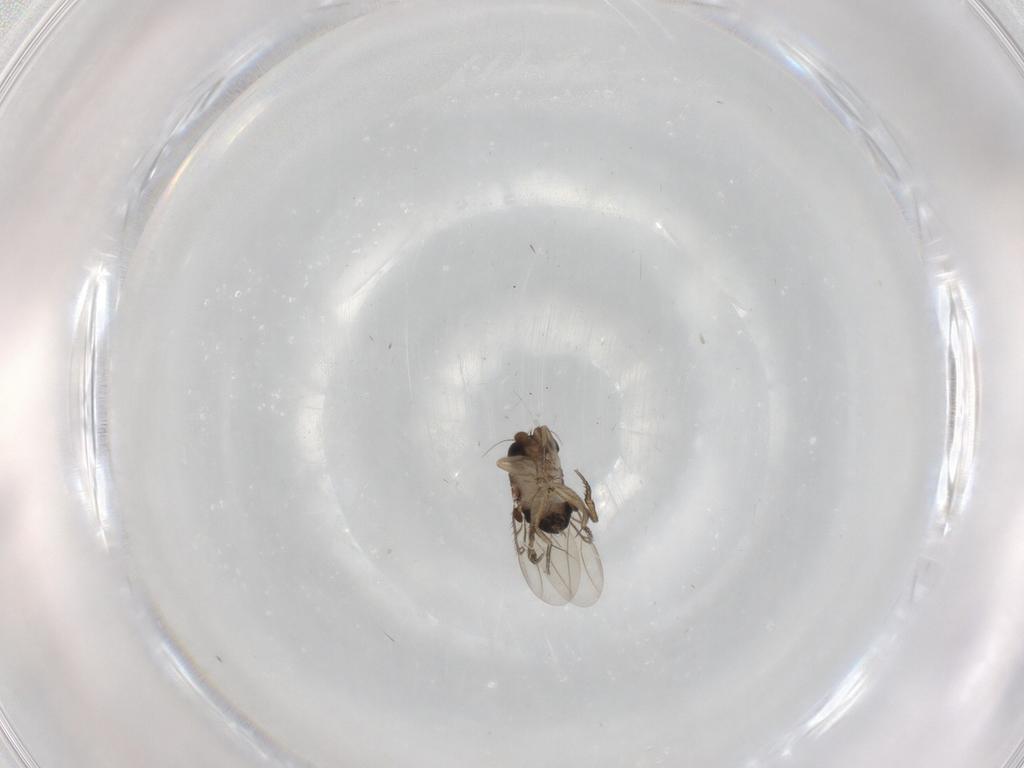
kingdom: Animalia
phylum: Arthropoda
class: Insecta
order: Diptera
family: Phoridae
